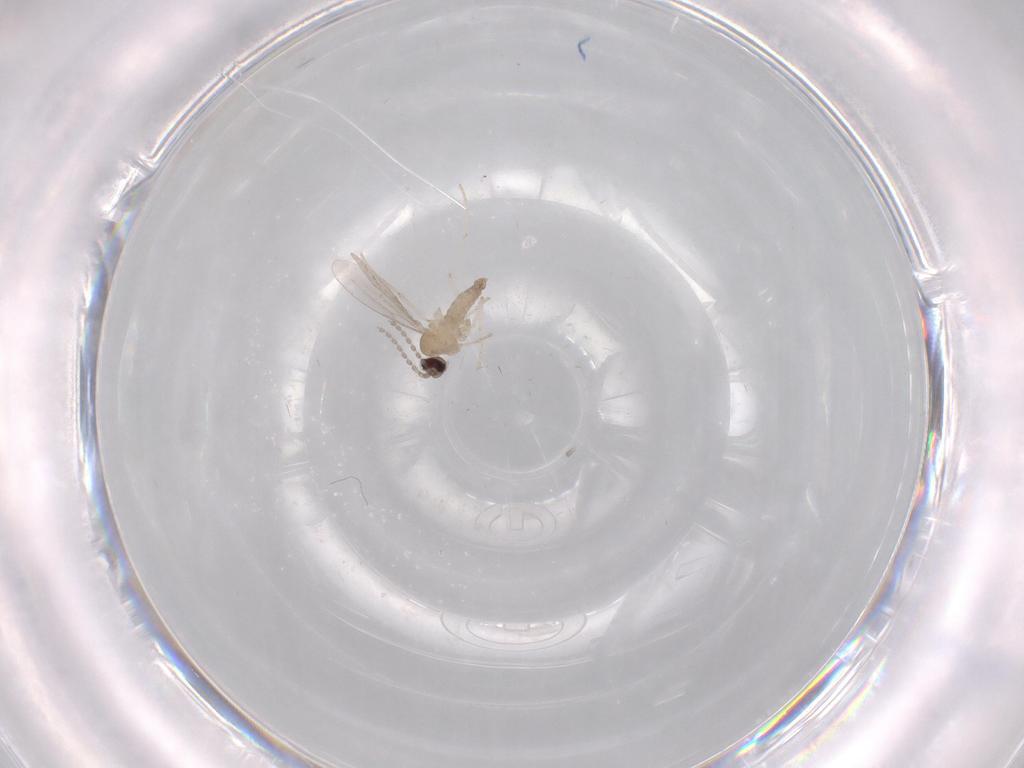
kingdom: Animalia
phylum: Arthropoda
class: Insecta
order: Diptera
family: Cecidomyiidae
